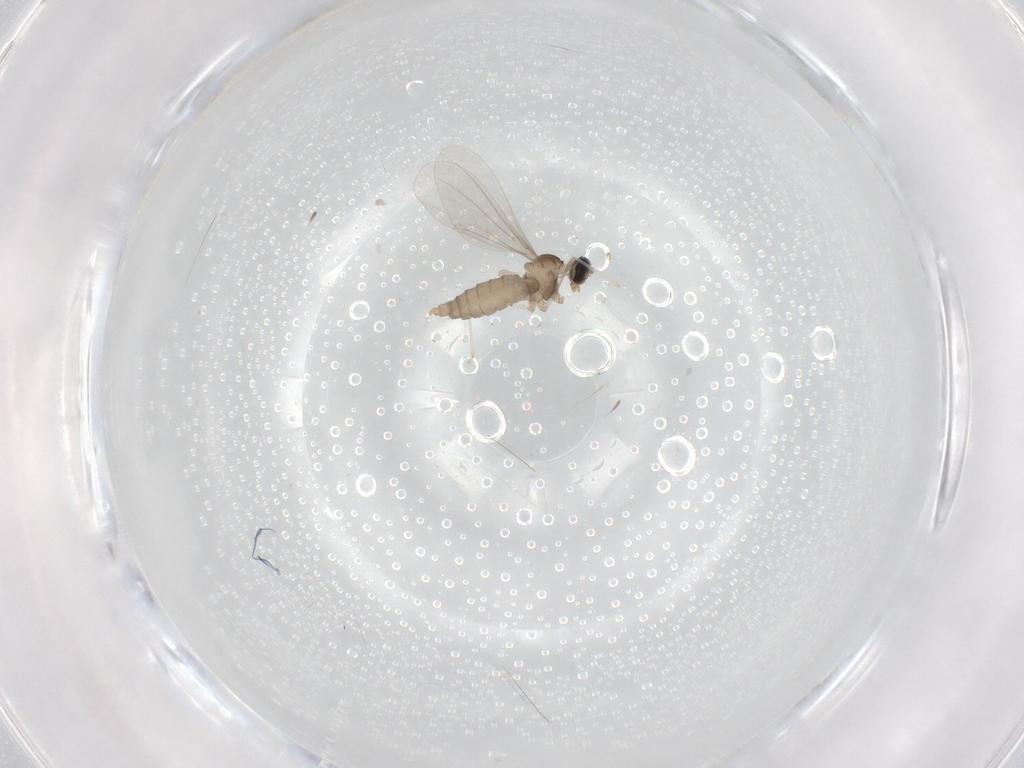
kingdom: Animalia
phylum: Arthropoda
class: Insecta
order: Diptera
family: Cecidomyiidae
